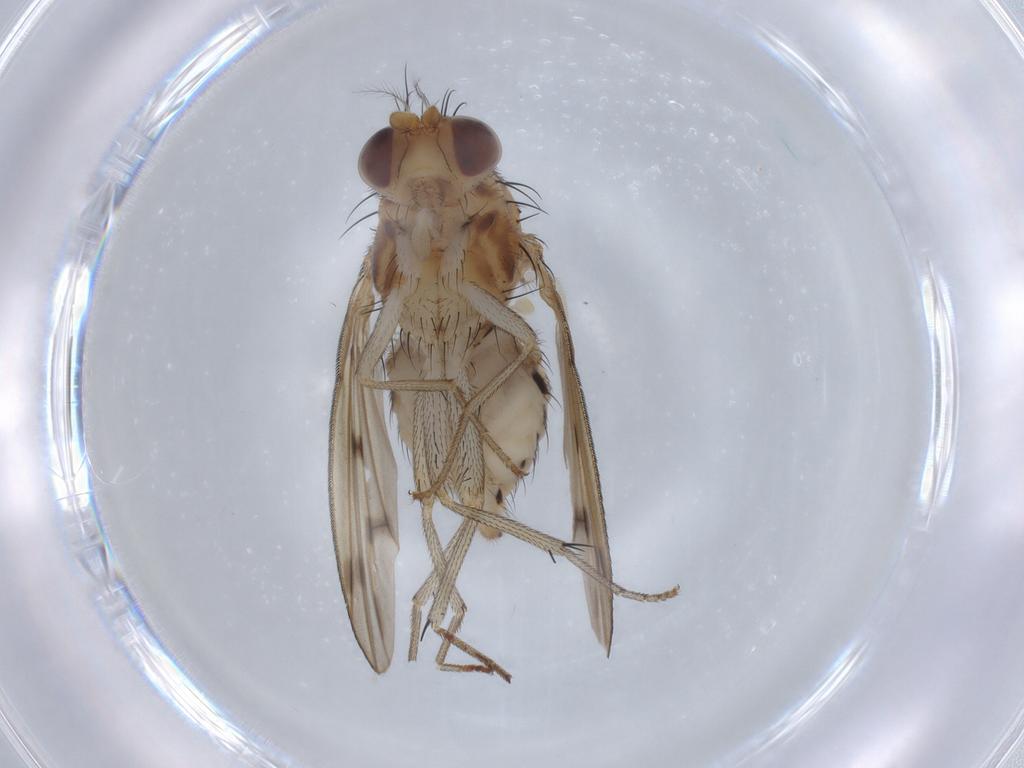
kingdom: Animalia
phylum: Arthropoda
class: Insecta
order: Diptera
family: Chironomidae
